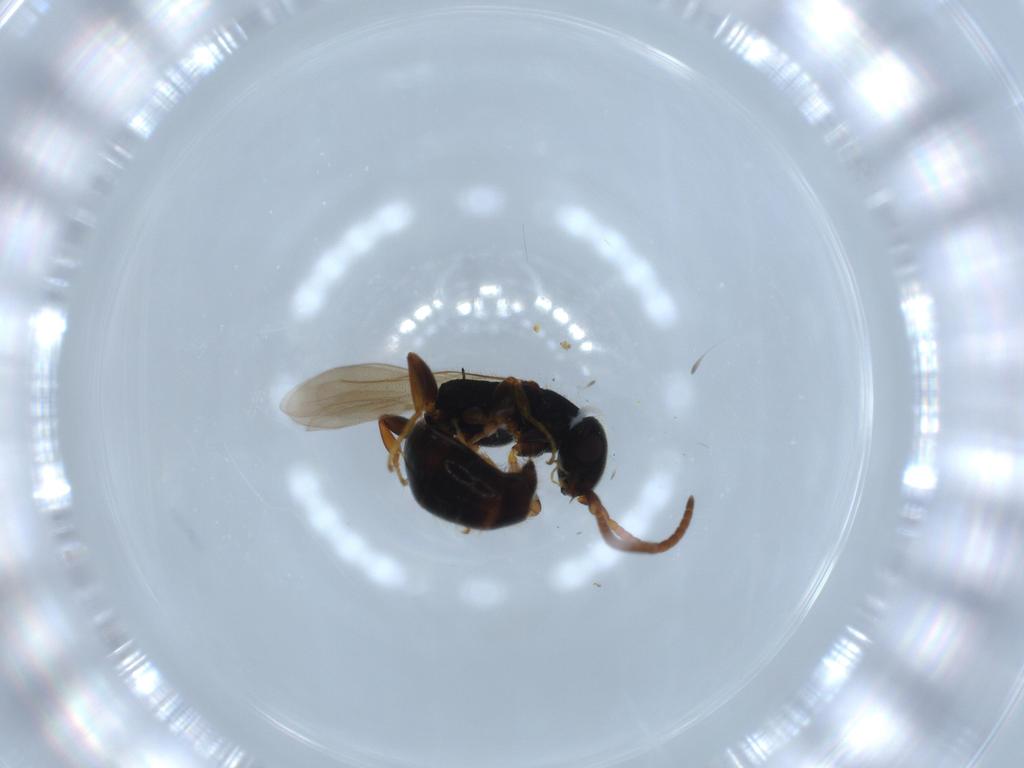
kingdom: Animalia
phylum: Arthropoda
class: Insecta
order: Hymenoptera
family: Bethylidae
